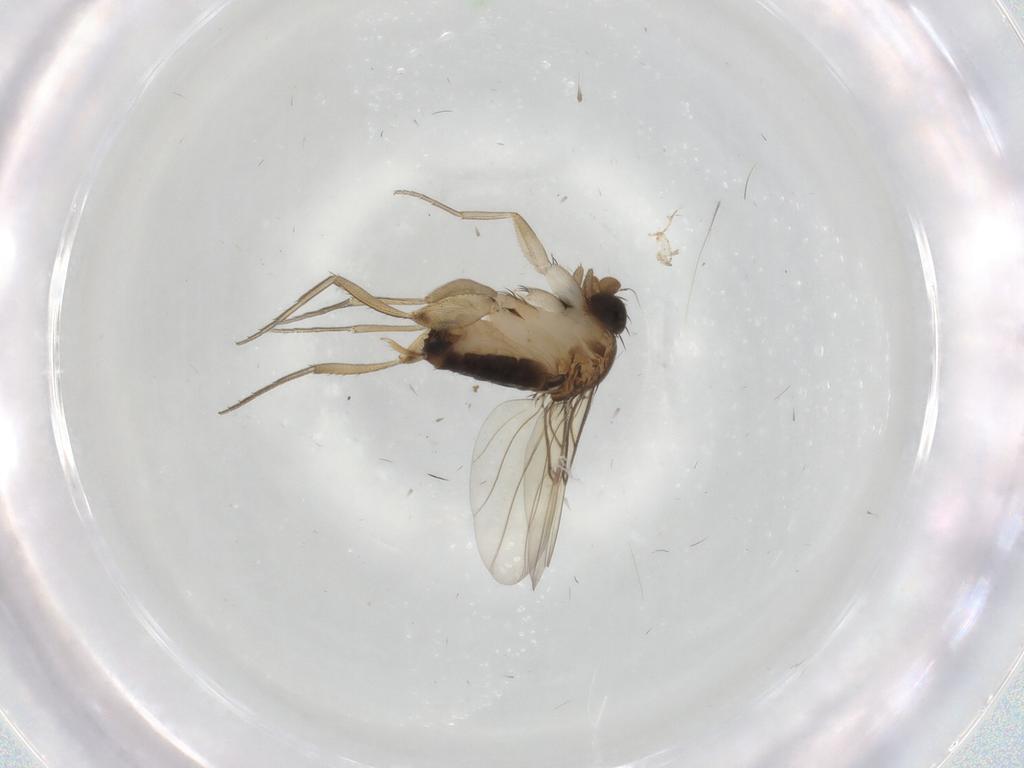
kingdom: Animalia
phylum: Arthropoda
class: Insecta
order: Diptera
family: Phoridae
